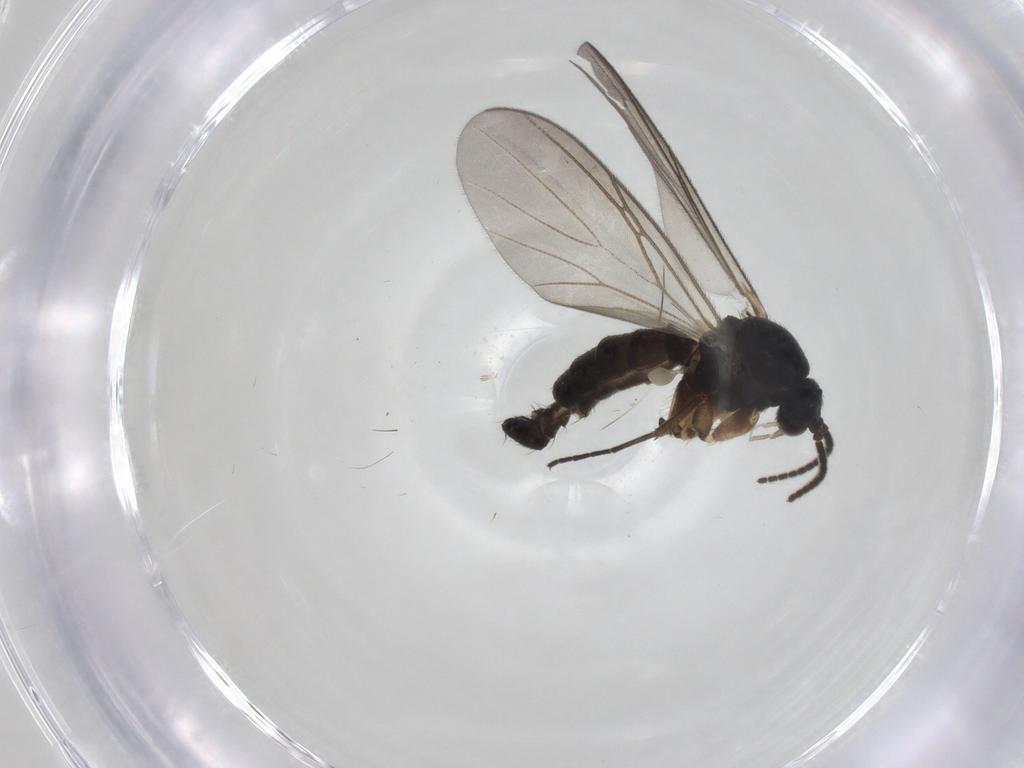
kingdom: Animalia
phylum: Arthropoda
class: Insecta
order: Diptera
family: Mycetophilidae
